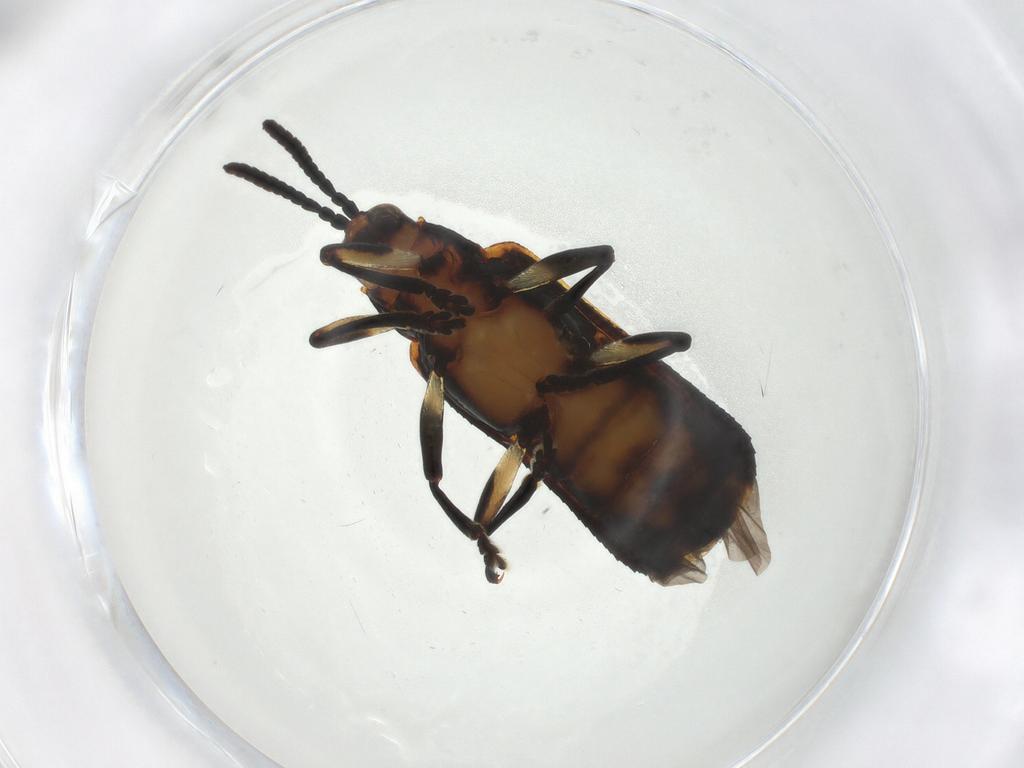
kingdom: Animalia
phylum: Arthropoda
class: Insecta
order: Coleoptera
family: Chrysomelidae
